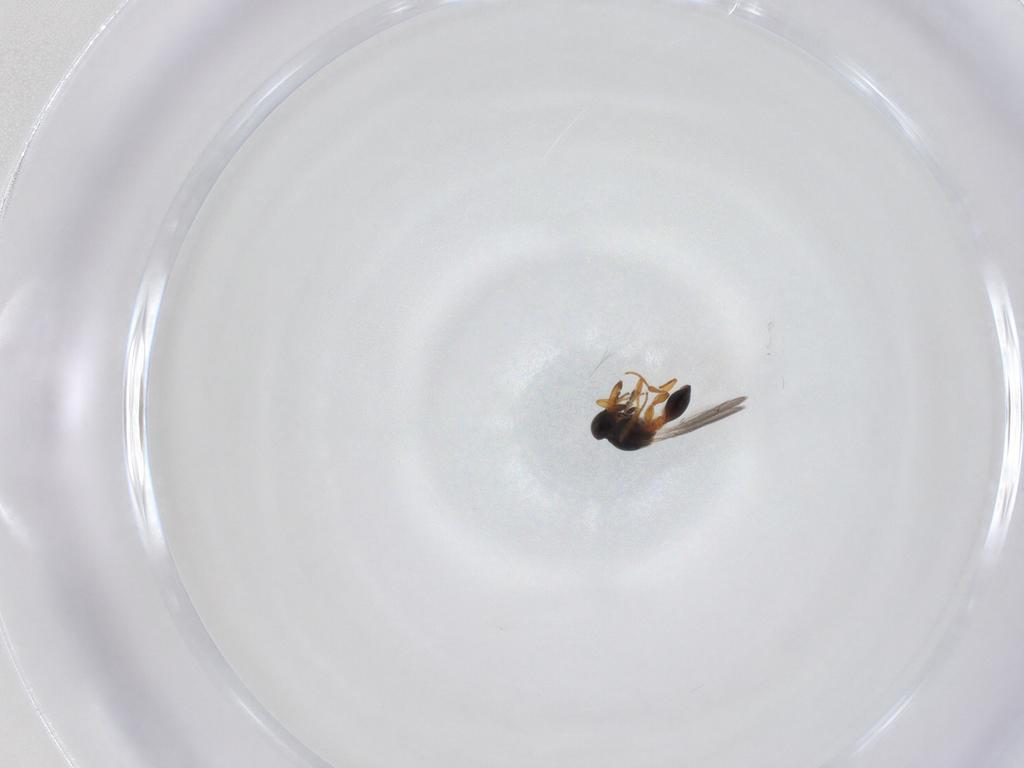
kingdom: Animalia
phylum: Arthropoda
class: Insecta
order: Hymenoptera
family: Platygastridae
